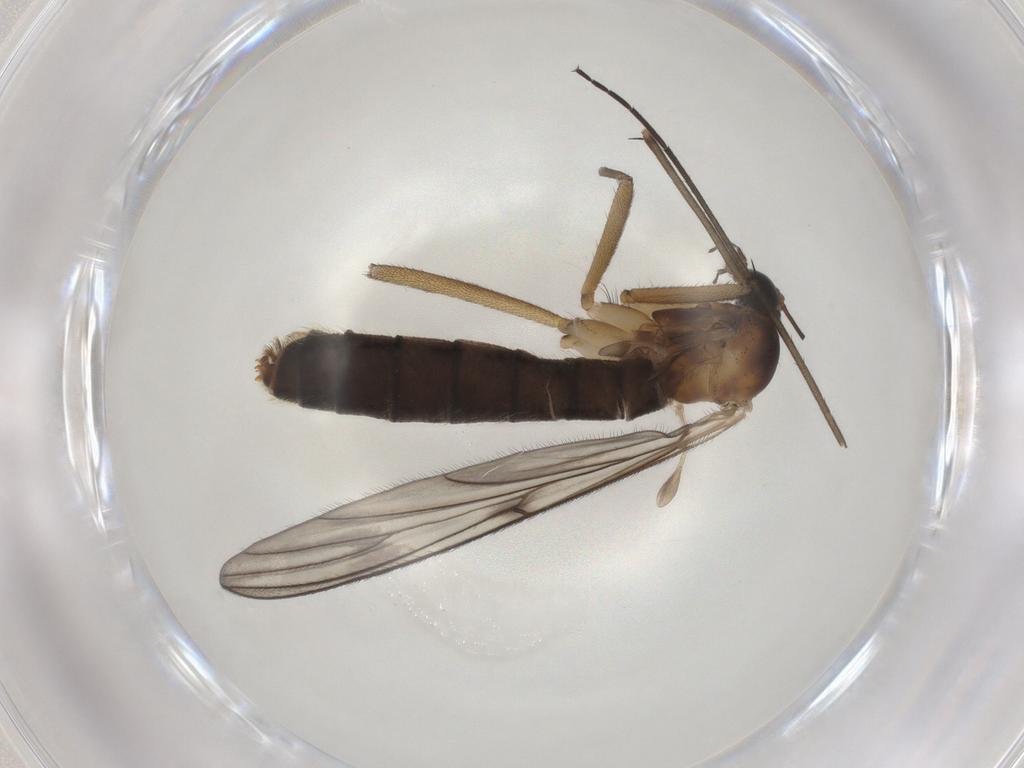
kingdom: Animalia
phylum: Arthropoda
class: Insecta
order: Diptera
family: Rangomaramidae
